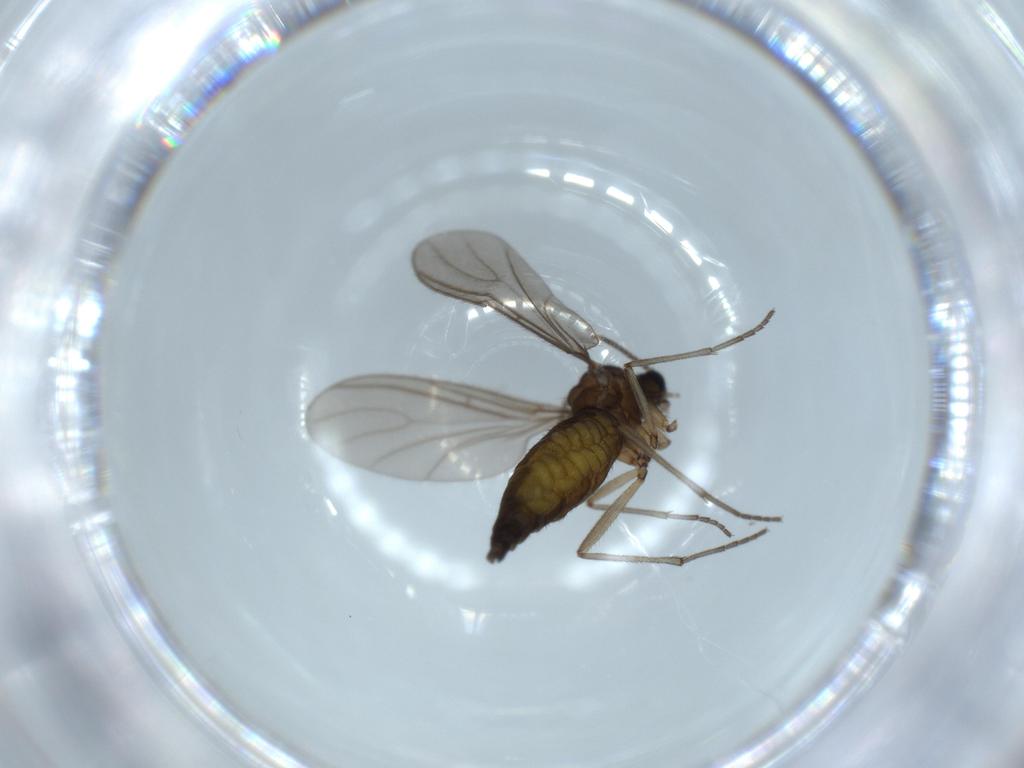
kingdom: Animalia
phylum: Arthropoda
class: Insecta
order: Diptera
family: Sciaridae
